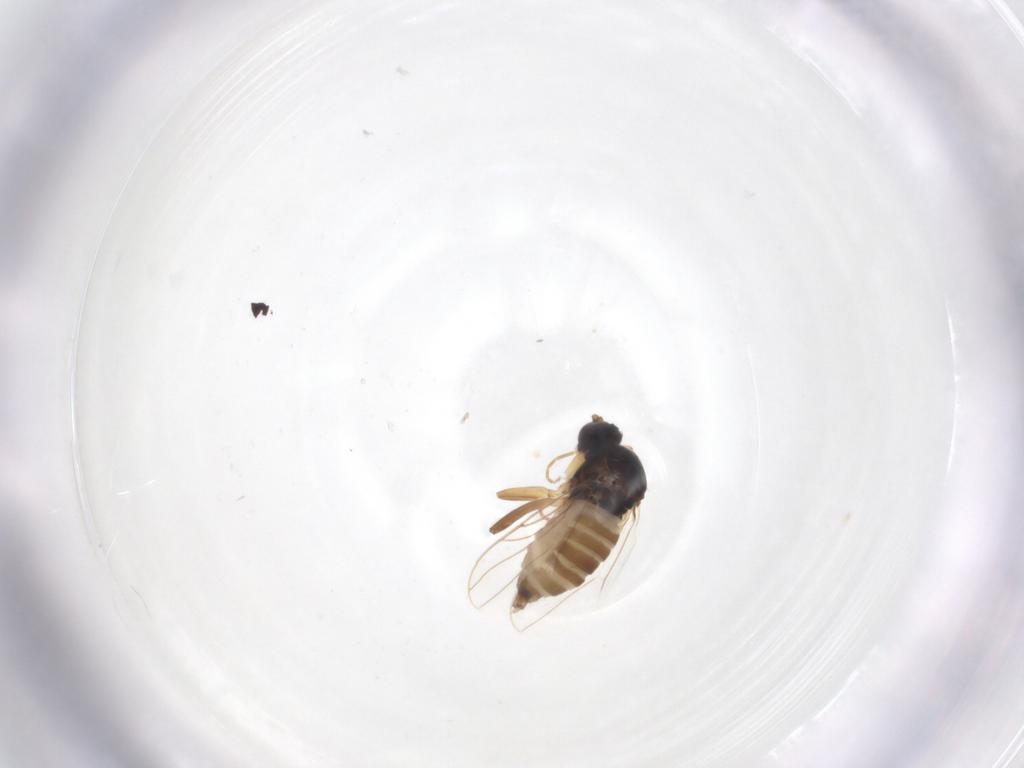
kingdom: Animalia
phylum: Arthropoda
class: Insecta
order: Diptera
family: Hybotidae
